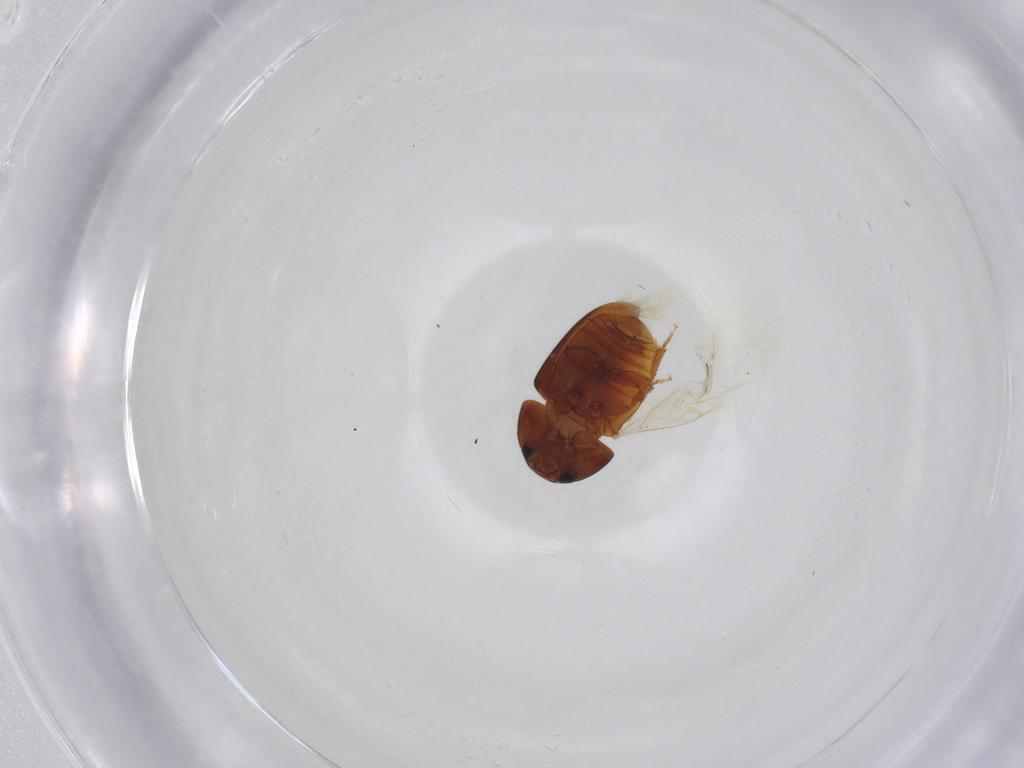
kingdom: Animalia
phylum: Arthropoda
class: Insecta
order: Coleoptera
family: Phalacridae
